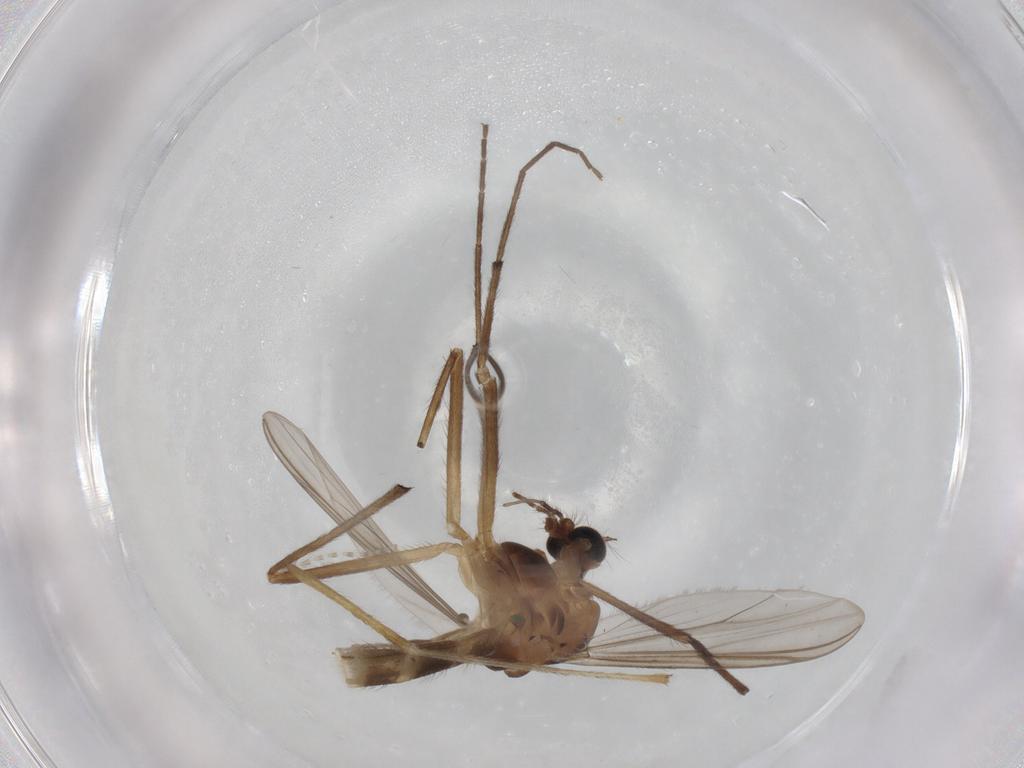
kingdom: Animalia
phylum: Arthropoda
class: Insecta
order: Diptera
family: Chironomidae
